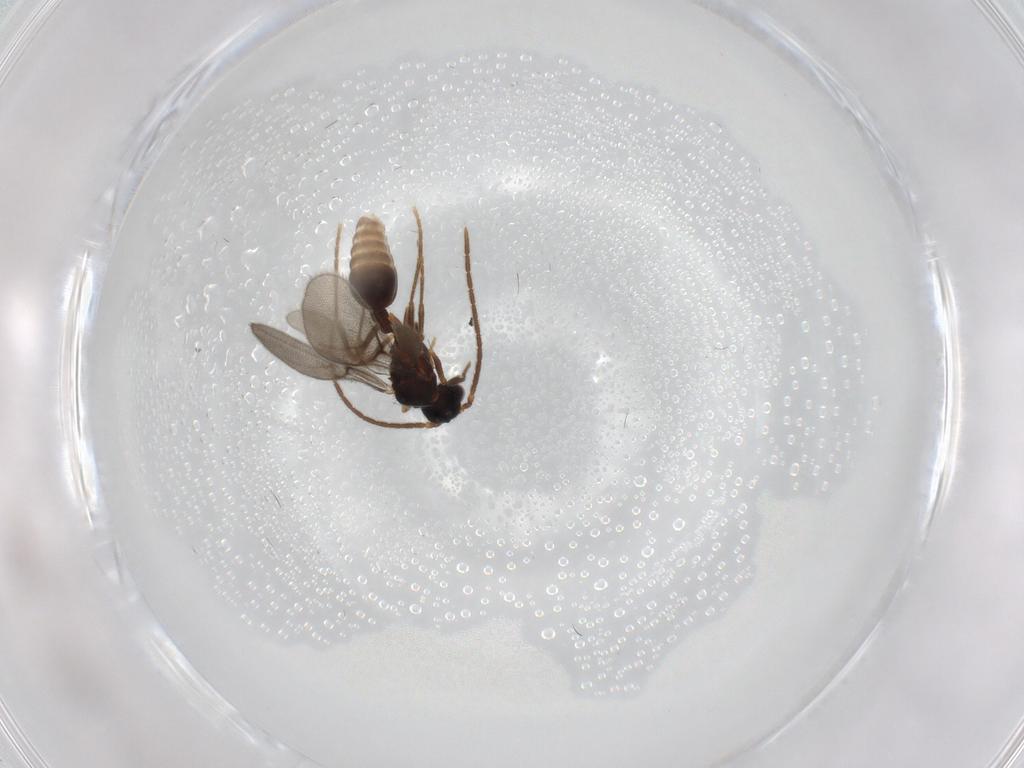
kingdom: Animalia
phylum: Arthropoda
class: Insecta
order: Hymenoptera
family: Formicidae
